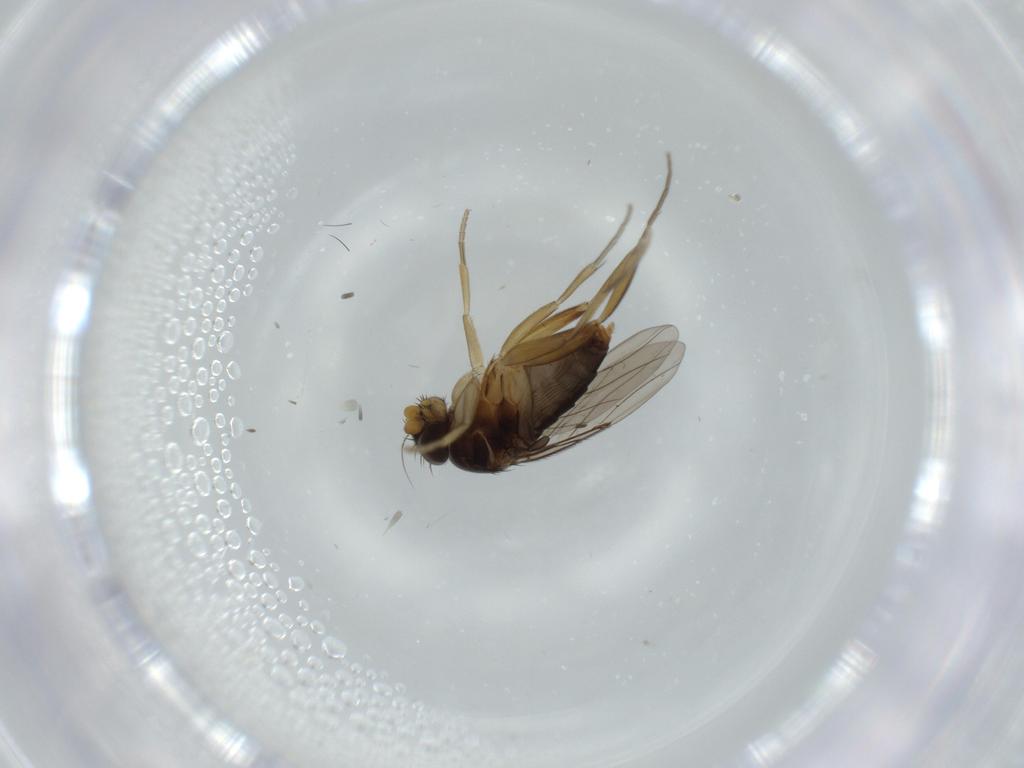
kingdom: Animalia
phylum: Arthropoda
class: Insecta
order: Diptera
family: Phoridae
